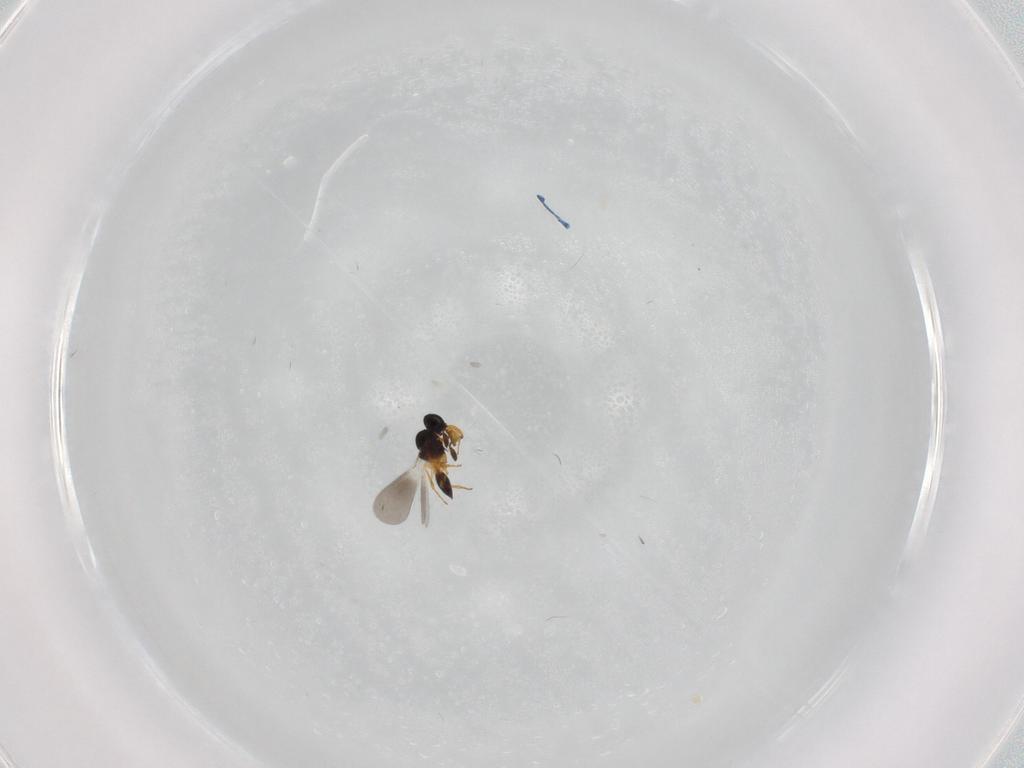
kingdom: Animalia
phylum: Arthropoda
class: Insecta
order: Hymenoptera
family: Platygastridae
